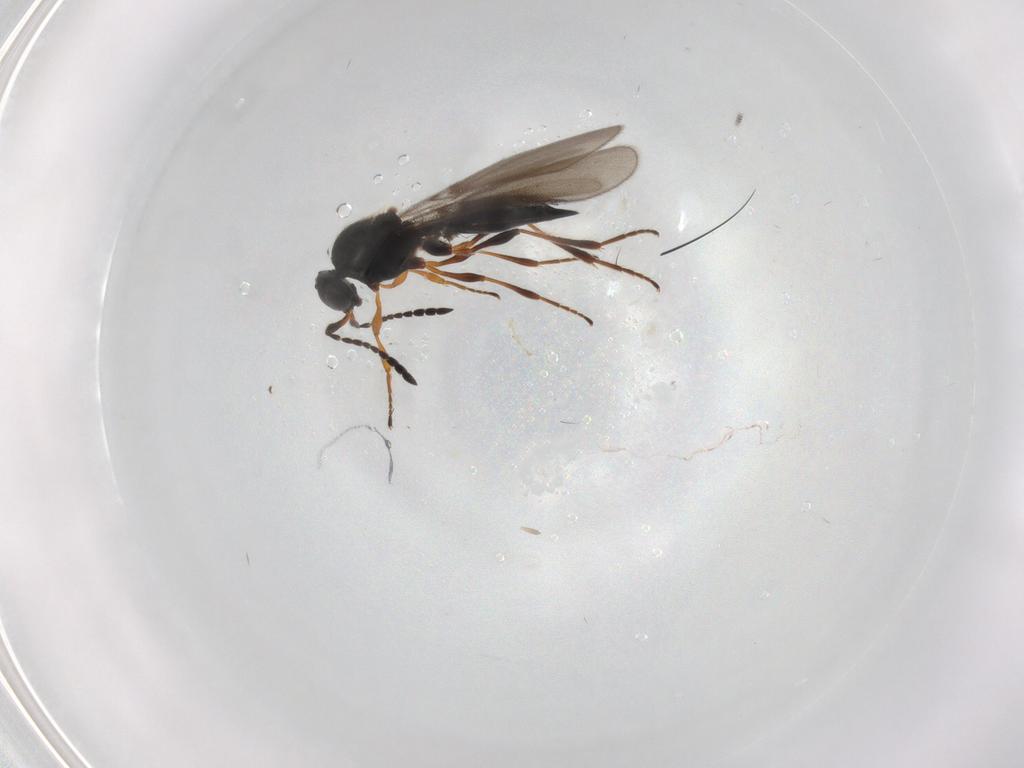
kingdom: Animalia
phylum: Arthropoda
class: Insecta
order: Hymenoptera
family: Platygastridae
